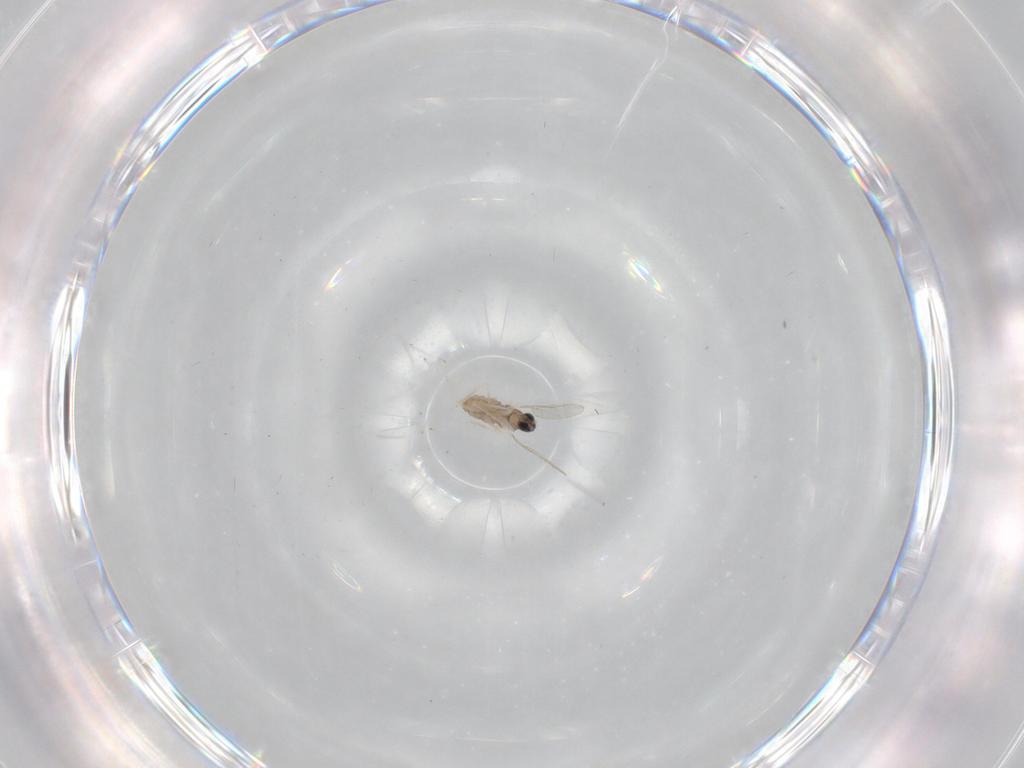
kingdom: Animalia
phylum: Arthropoda
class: Insecta
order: Diptera
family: Cecidomyiidae
